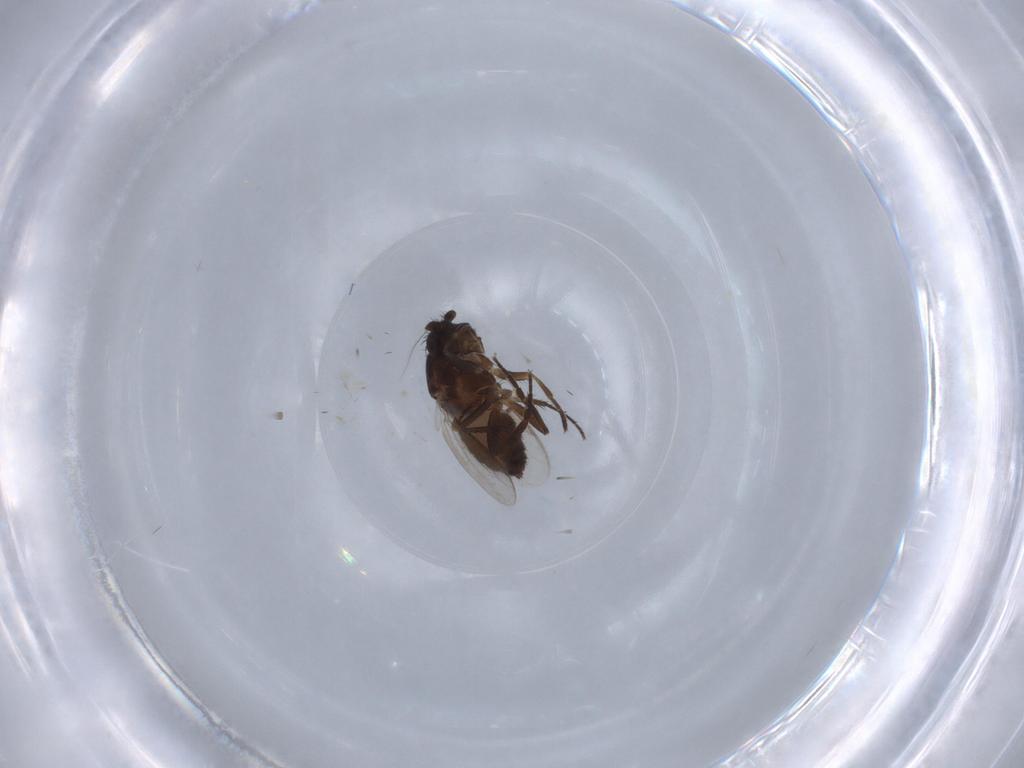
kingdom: Animalia
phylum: Arthropoda
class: Insecta
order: Diptera
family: Sphaeroceridae
